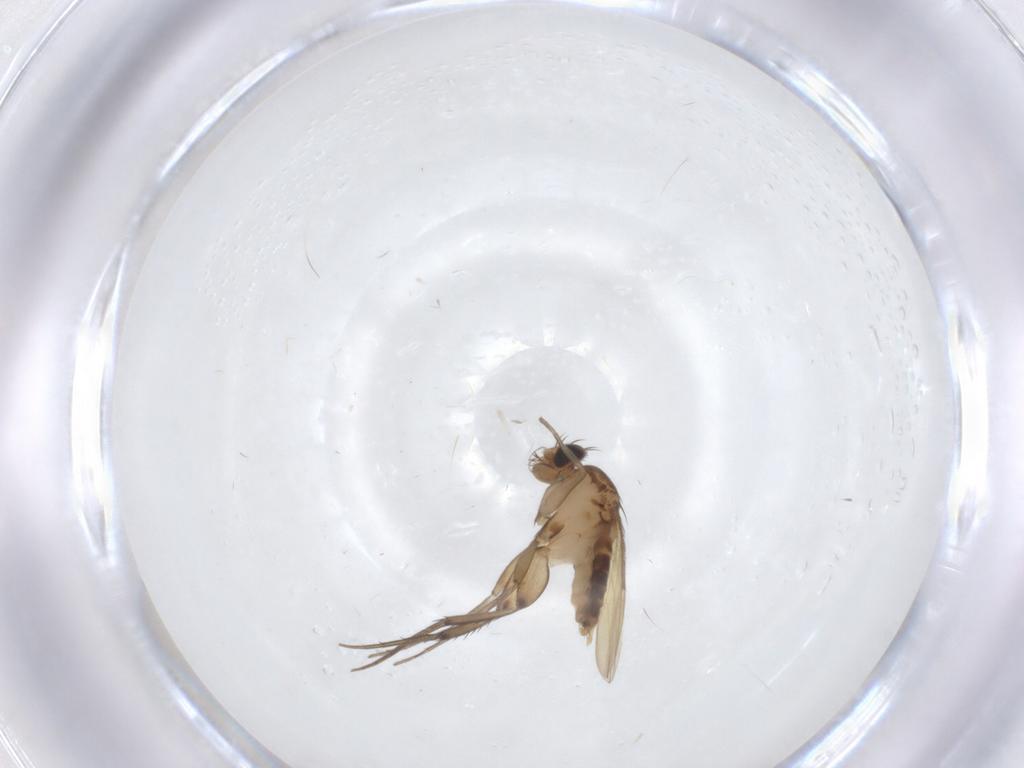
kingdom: Animalia
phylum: Arthropoda
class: Insecta
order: Diptera
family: Phoridae
